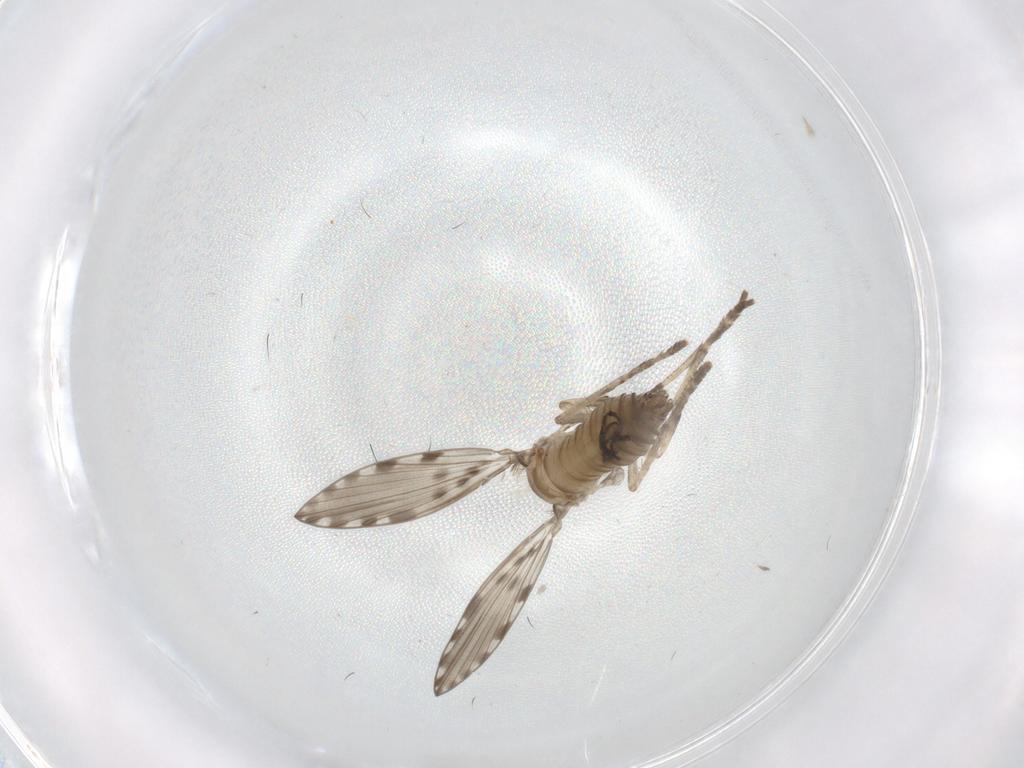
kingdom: Animalia
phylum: Arthropoda
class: Insecta
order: Diptera
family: Psychodidae
